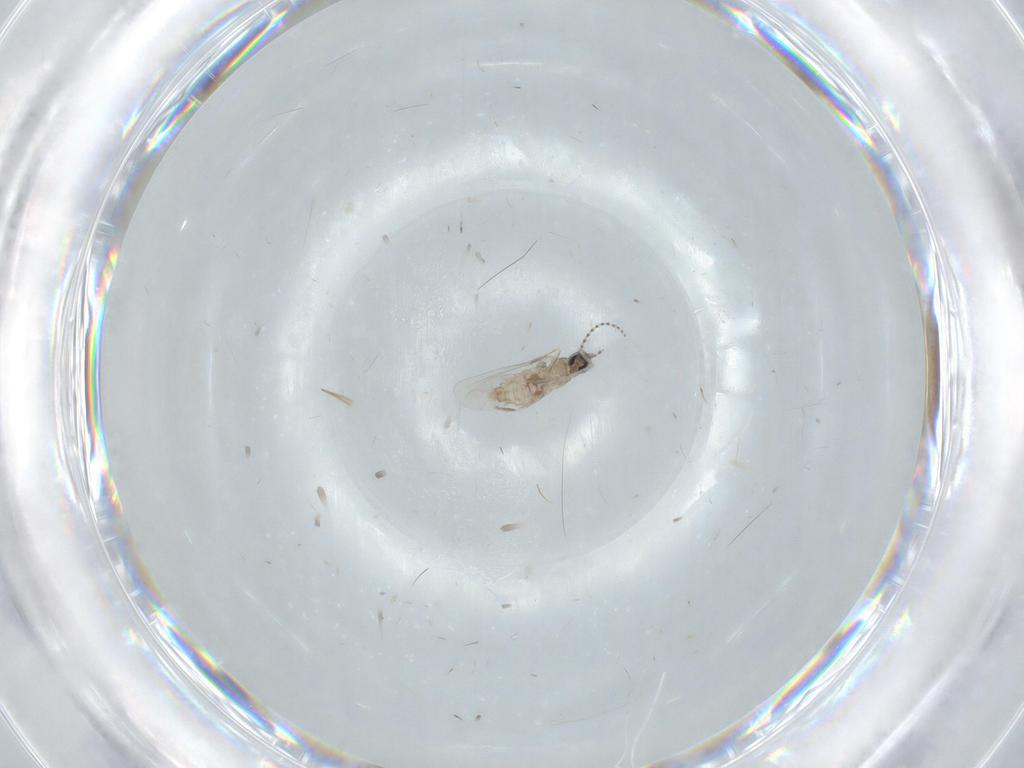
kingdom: Animalia
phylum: Arthropoda
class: Insecta
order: Diptera
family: Cecidomyiidae
